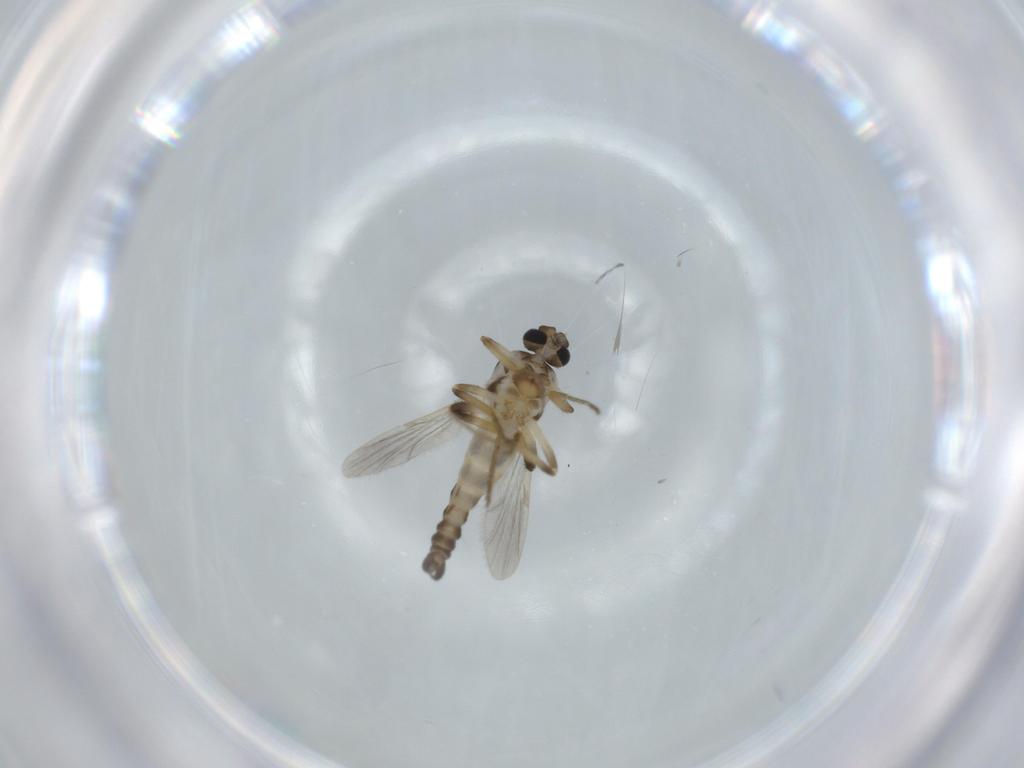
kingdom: Animalia
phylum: Arthropoda
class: Insecta
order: Diptera
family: Ceratopogonidae
